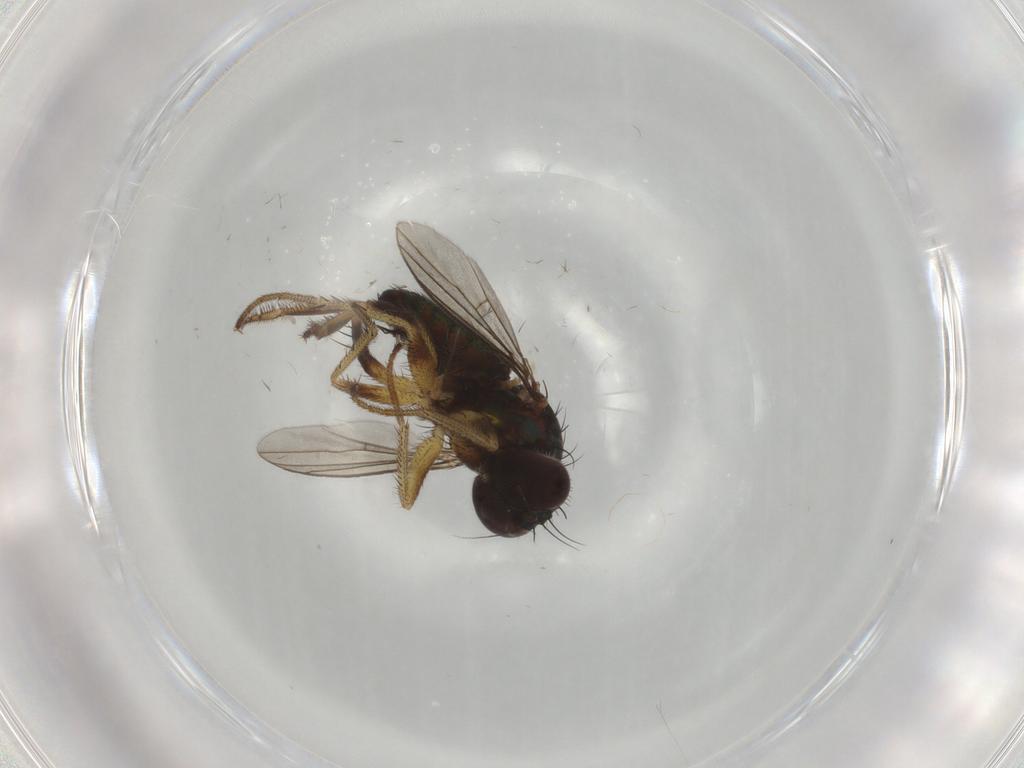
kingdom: Animalia
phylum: Arthropoda
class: Insecta
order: Diptera
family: Dolichopodidae
